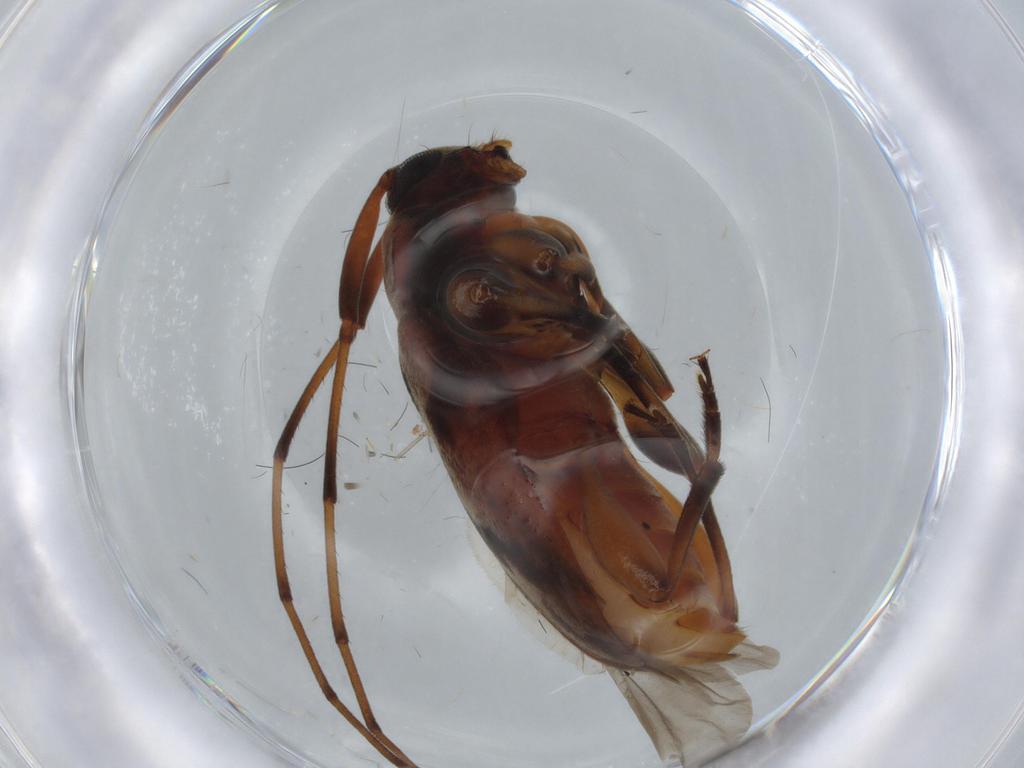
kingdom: Animalia
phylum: Arthropoda
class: Insecta
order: Coleoptera
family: Cerambycidae
